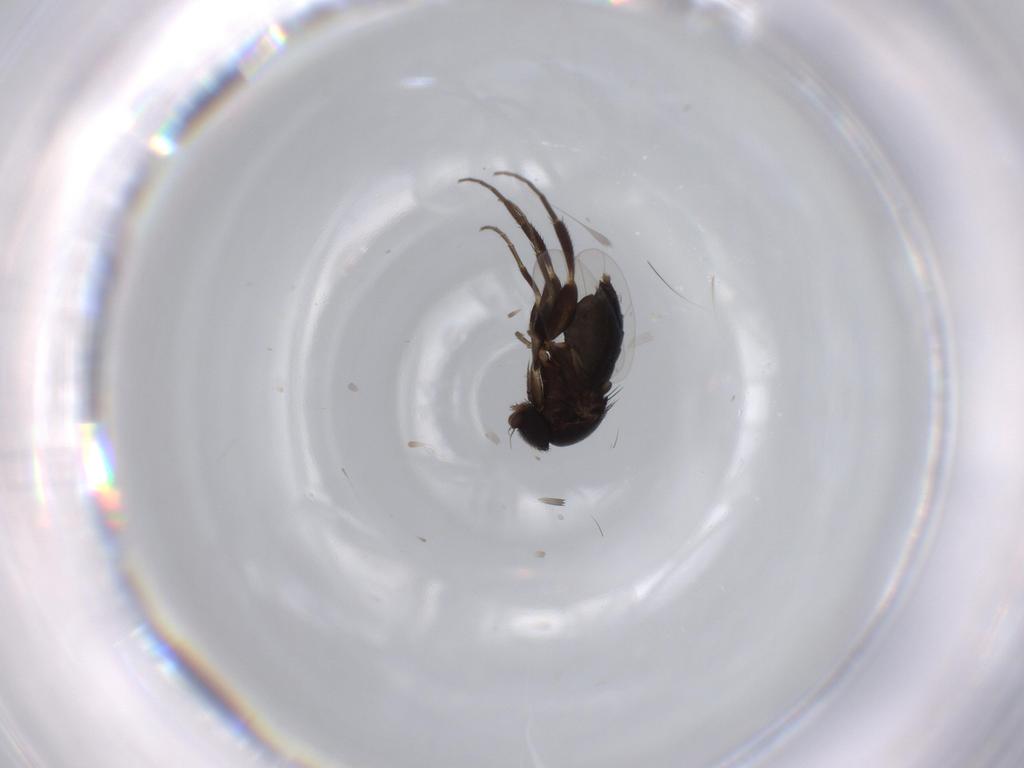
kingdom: Animalia
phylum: Arthropoda
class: Insecta
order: Diptera
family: Phoridae
